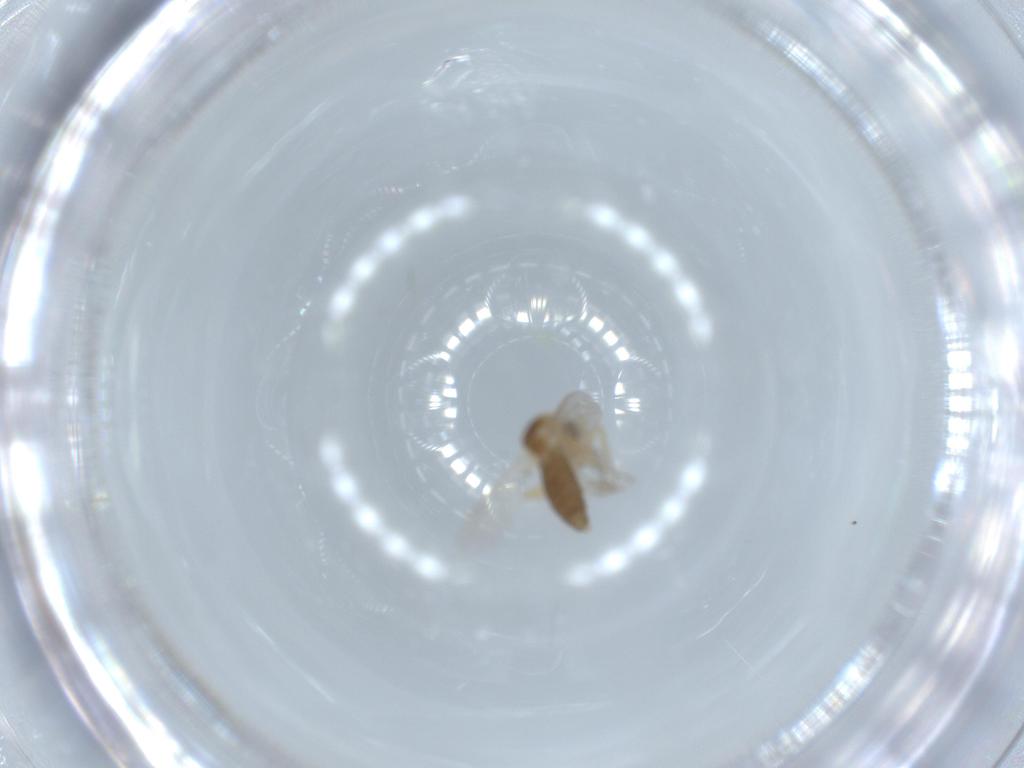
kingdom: Animalia
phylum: Arthropoda
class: Insecta
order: Diptera
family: Ceratopogonidae
